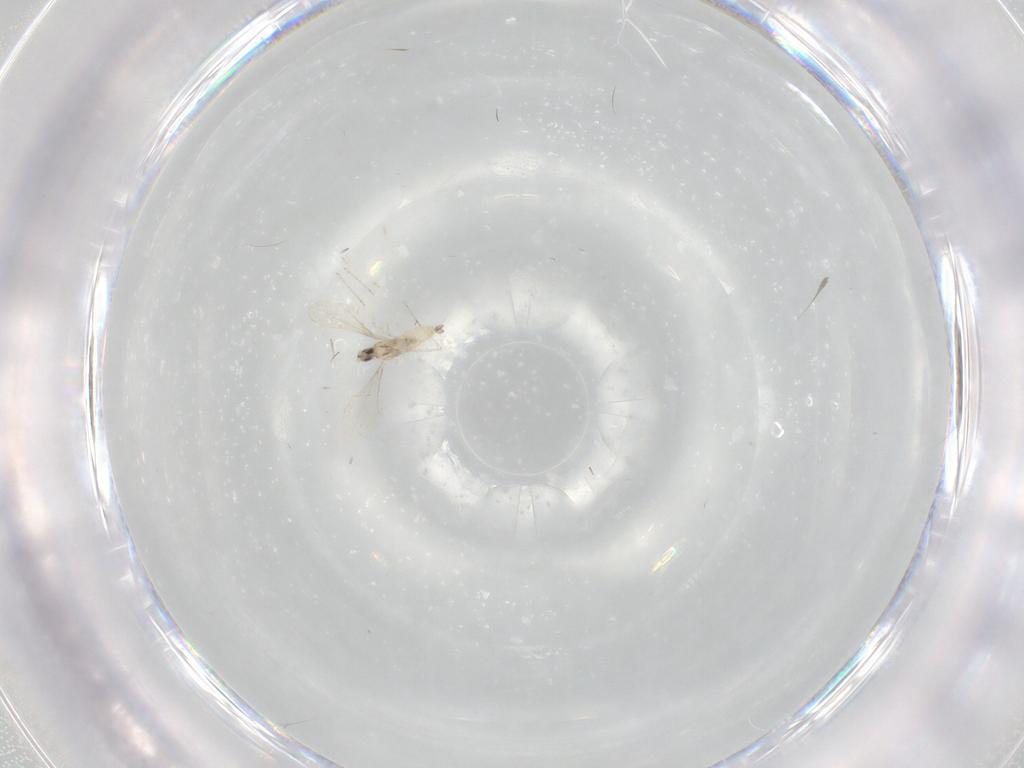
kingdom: Animalia
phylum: Arthropoda
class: Insecta
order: Diptera
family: Cecidomyiidae
